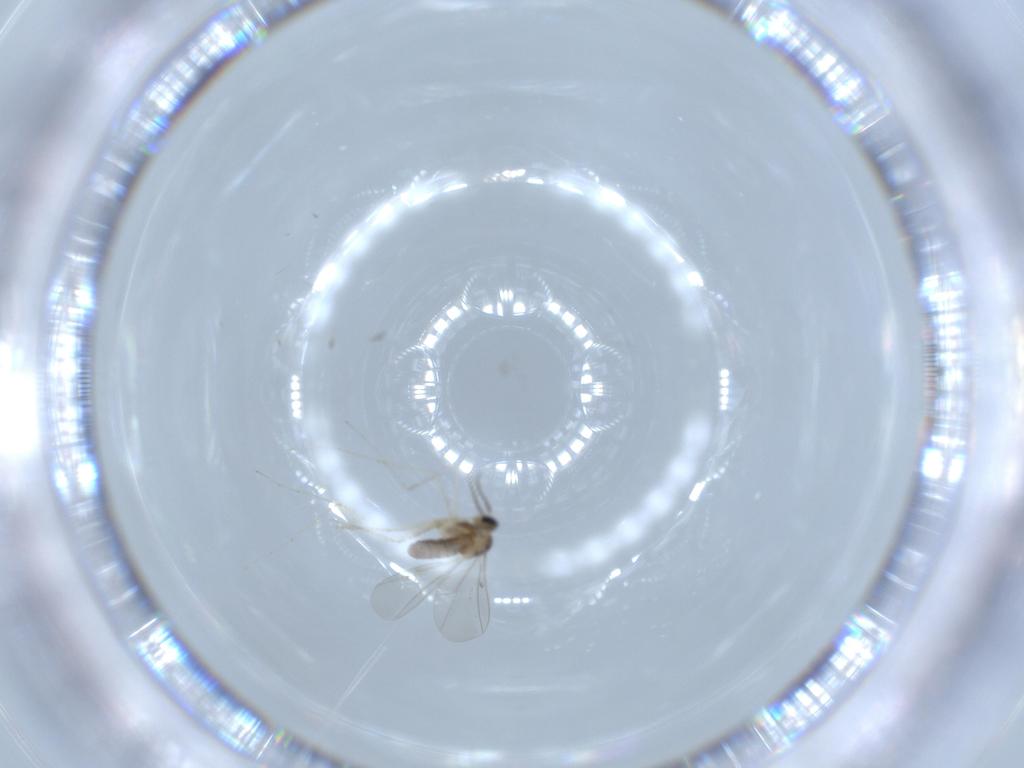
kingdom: Animalia
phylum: Arthropoda
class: Insecta
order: Diptera
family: Cecidomyiidae
